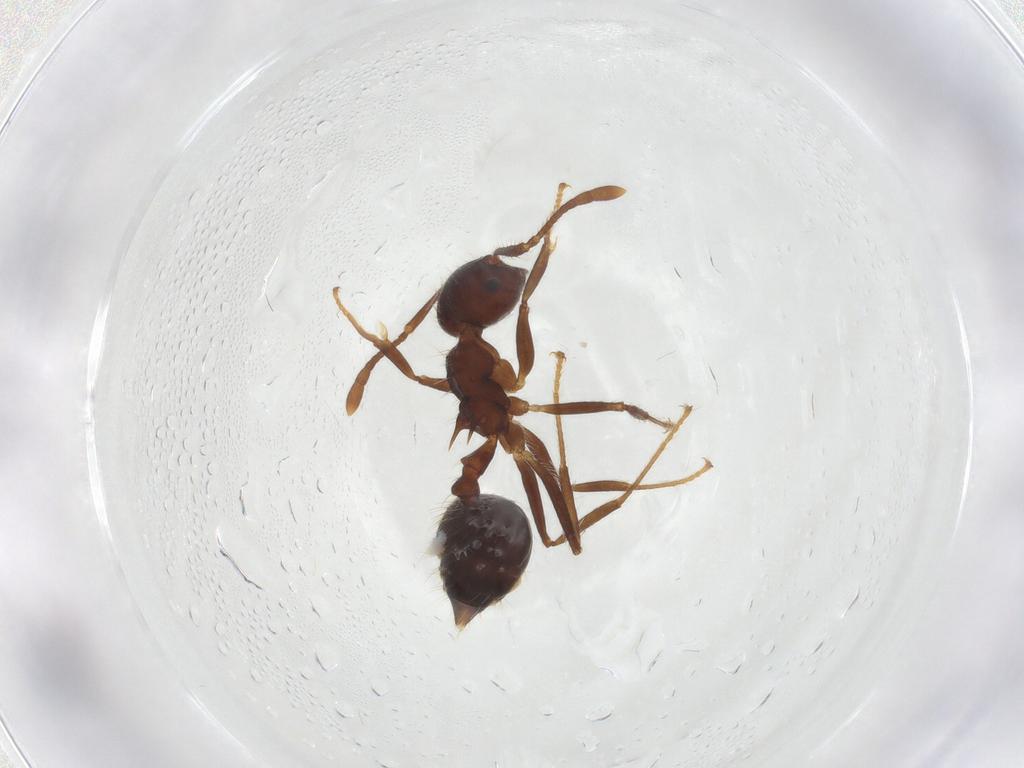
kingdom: Animalia
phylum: Arthropoda
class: Insecta
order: Hymenoptera
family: Formicidae
